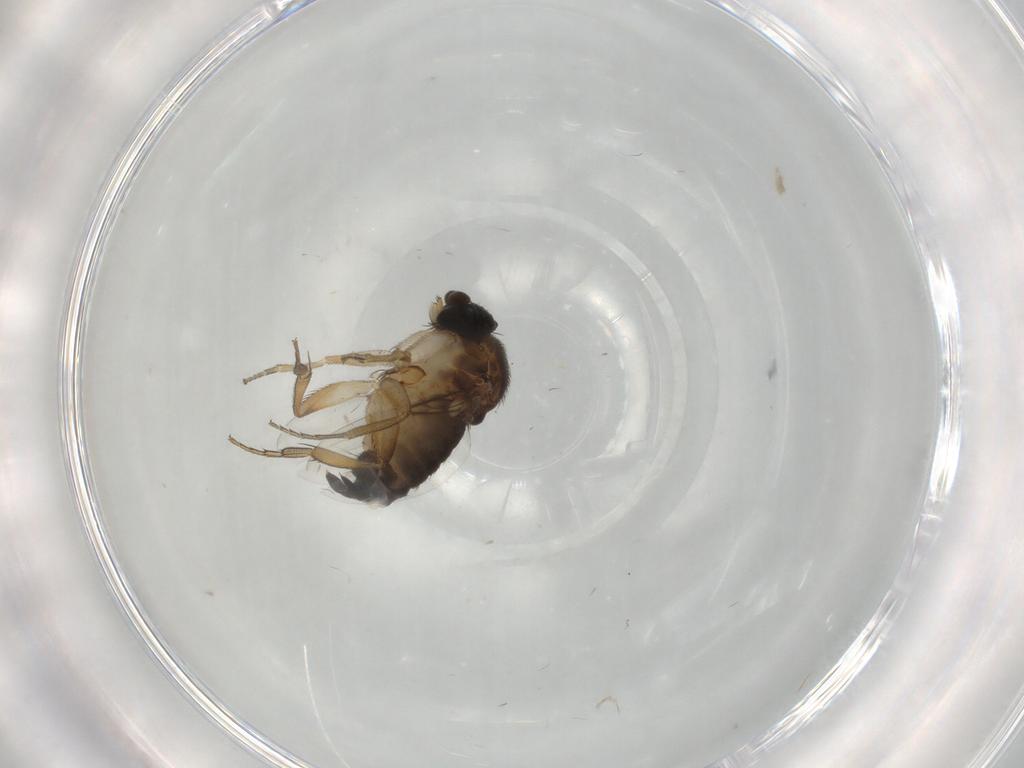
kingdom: Animalia
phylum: Arthropoda
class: Insecta
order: Diptera
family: Phoridae
